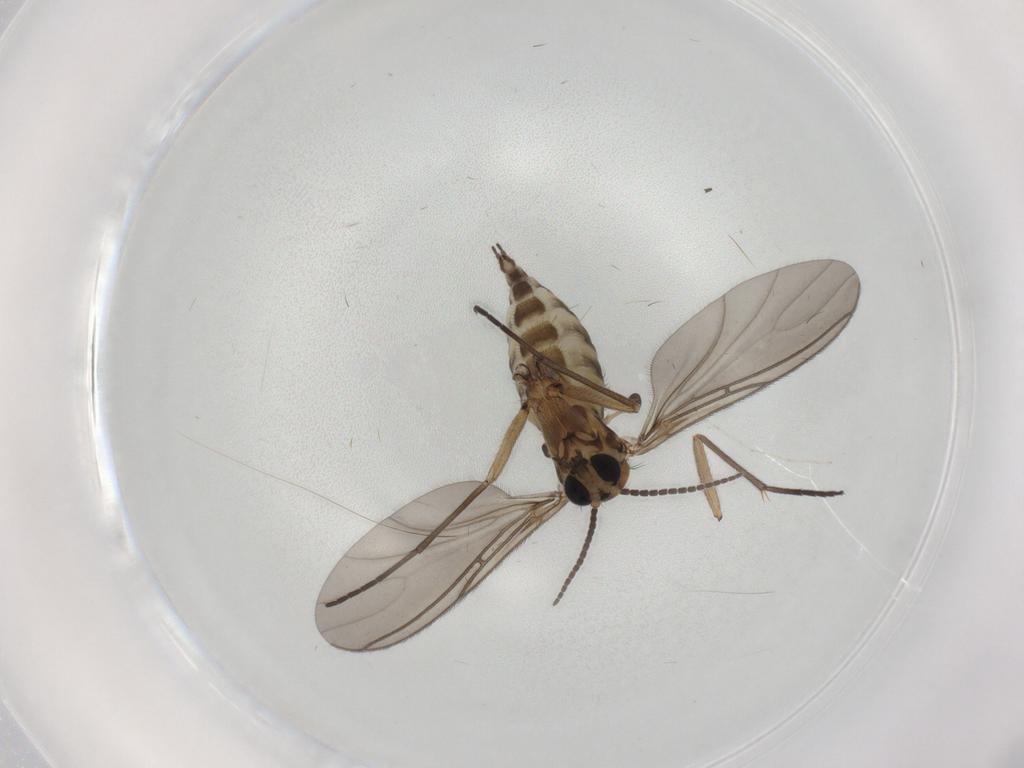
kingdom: Animalia
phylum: Arthropoda
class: Insecta
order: Diptera
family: Sciaridae
